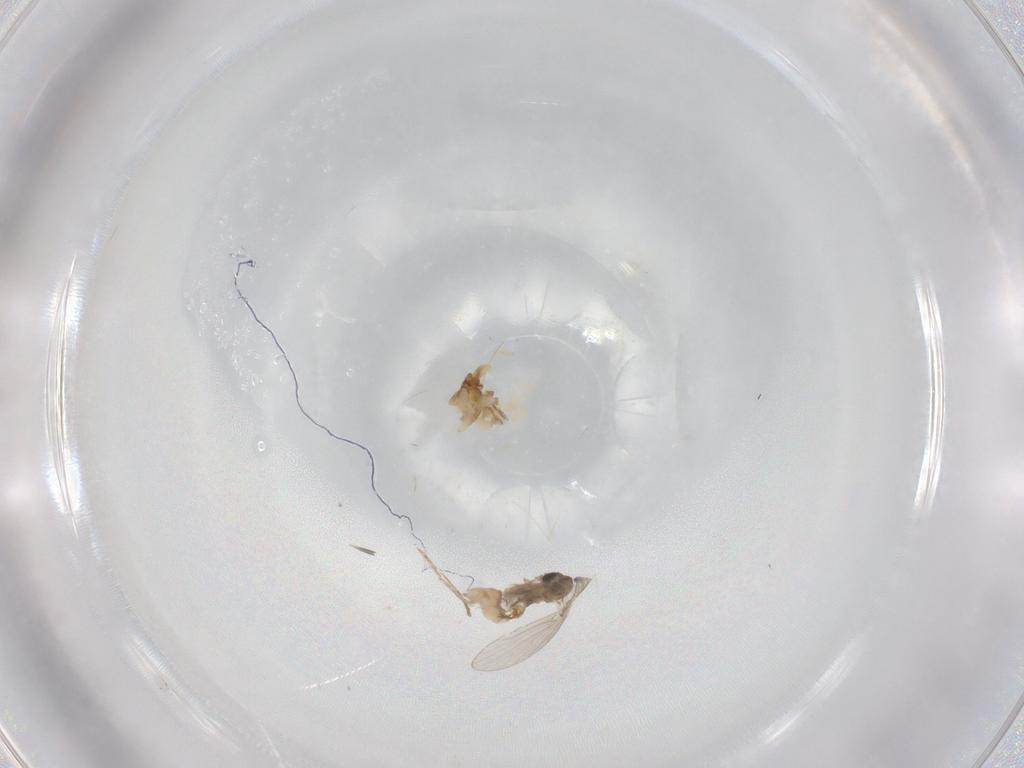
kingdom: Animalia
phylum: Arthropoda
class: Insecta
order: Diptera
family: Psychodidae
